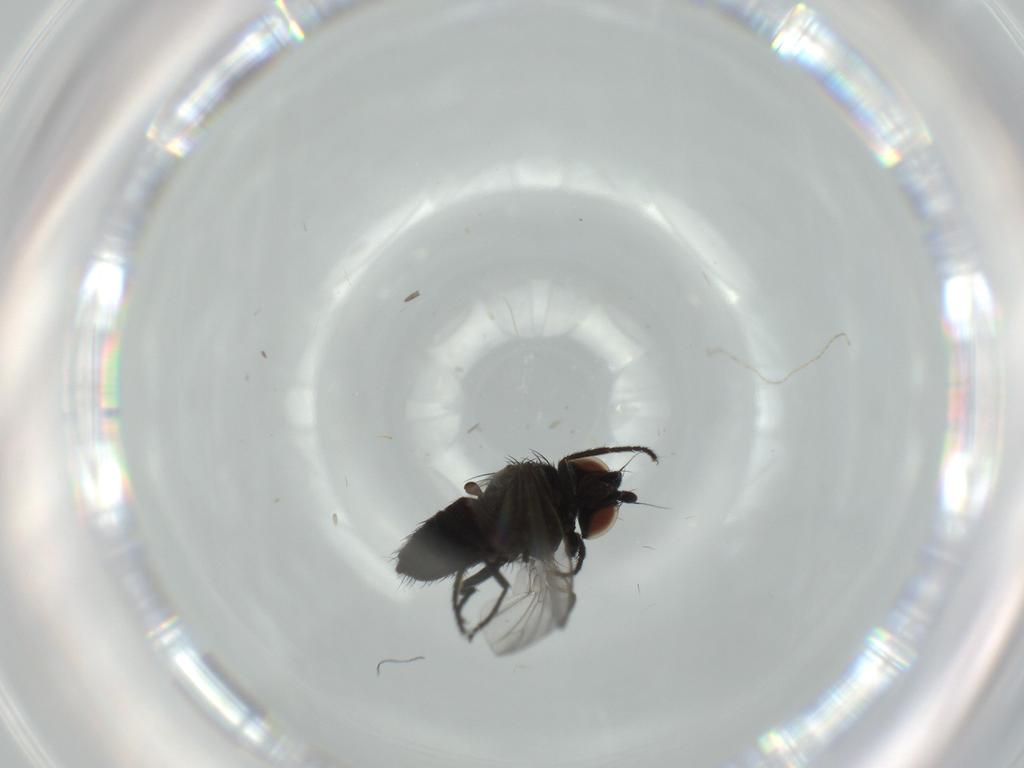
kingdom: Animalia
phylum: Arthropoda
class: Insecta
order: Diptera
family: Milichiidae
